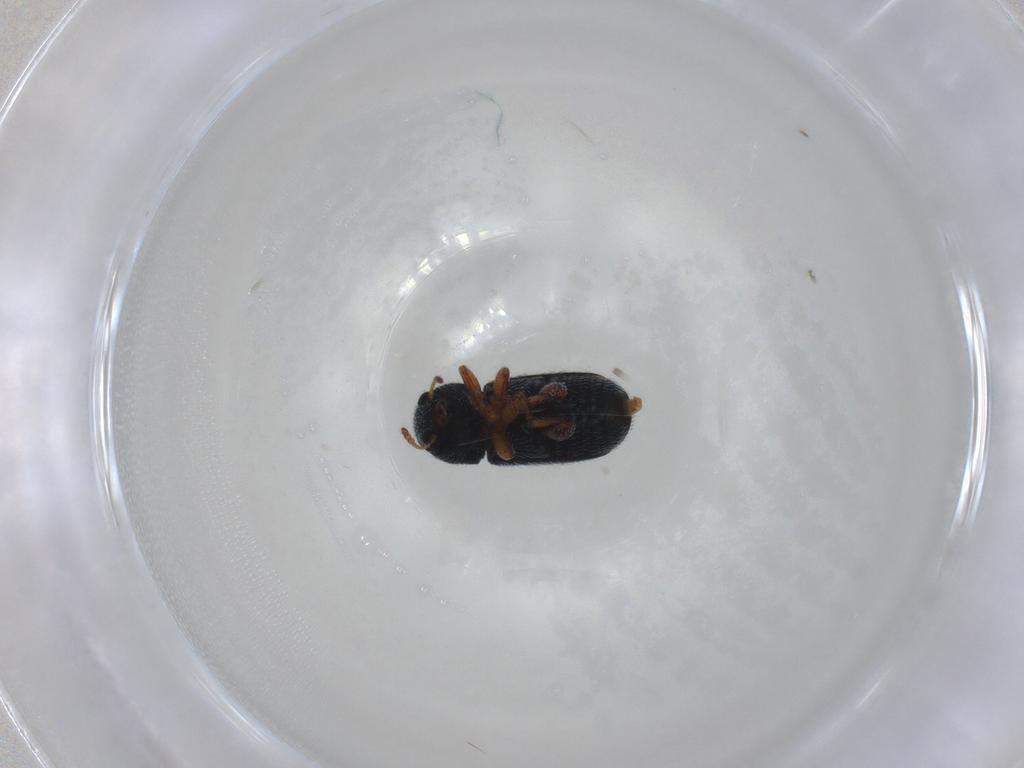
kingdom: Animalia
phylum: Arthropoda
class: Insecta
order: Coleoptera
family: Anthribidae
